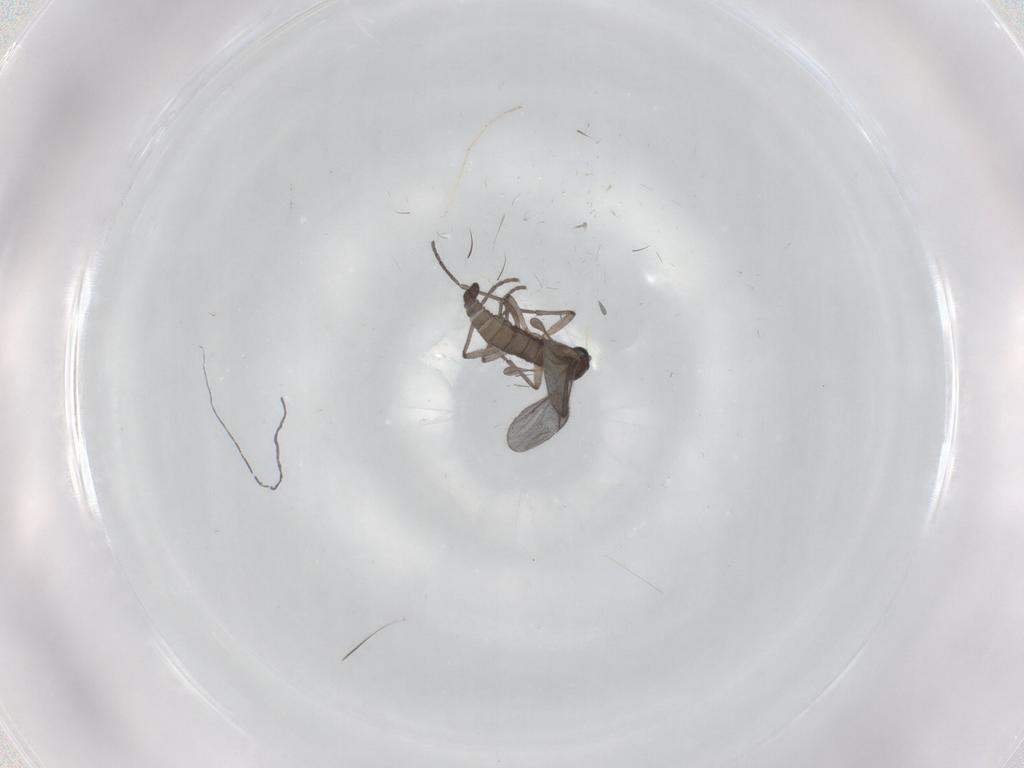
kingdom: Animalia
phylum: Arthropoda
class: Insecta
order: Diptera
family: Sciaridae
